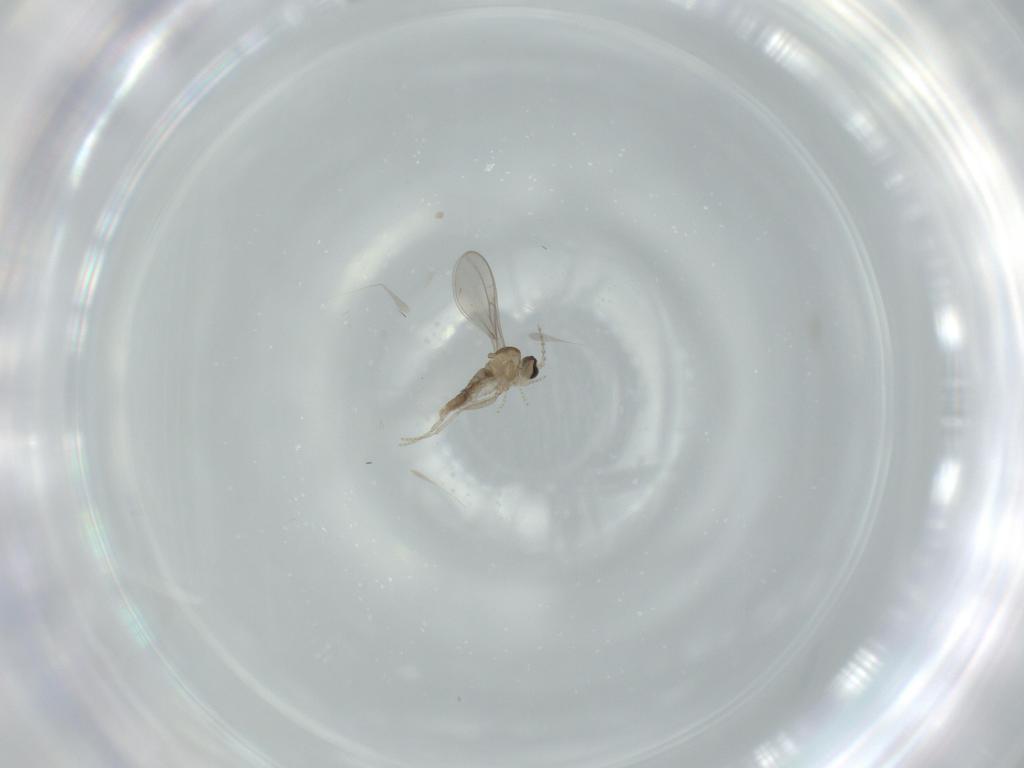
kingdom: Animalia
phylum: Arthropoda
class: Insecta
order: Diptera
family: Cecidomyiidae
